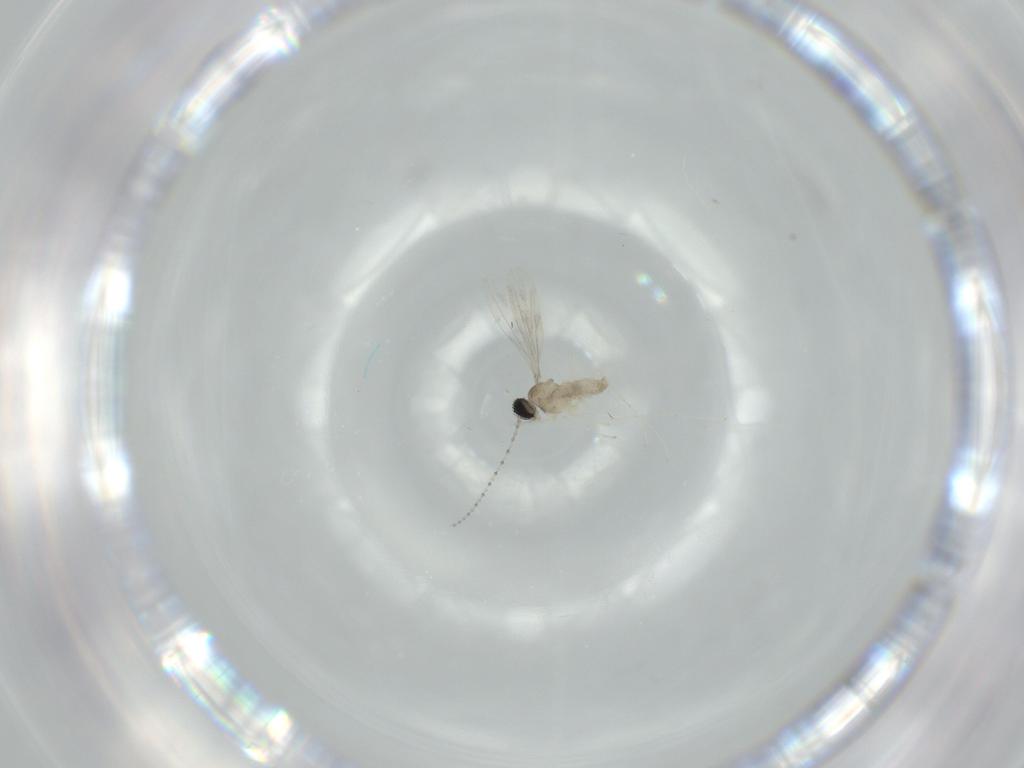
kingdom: Animalia
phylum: Arthropoda
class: Insecta
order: Diptera
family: Cecidomyiidae
